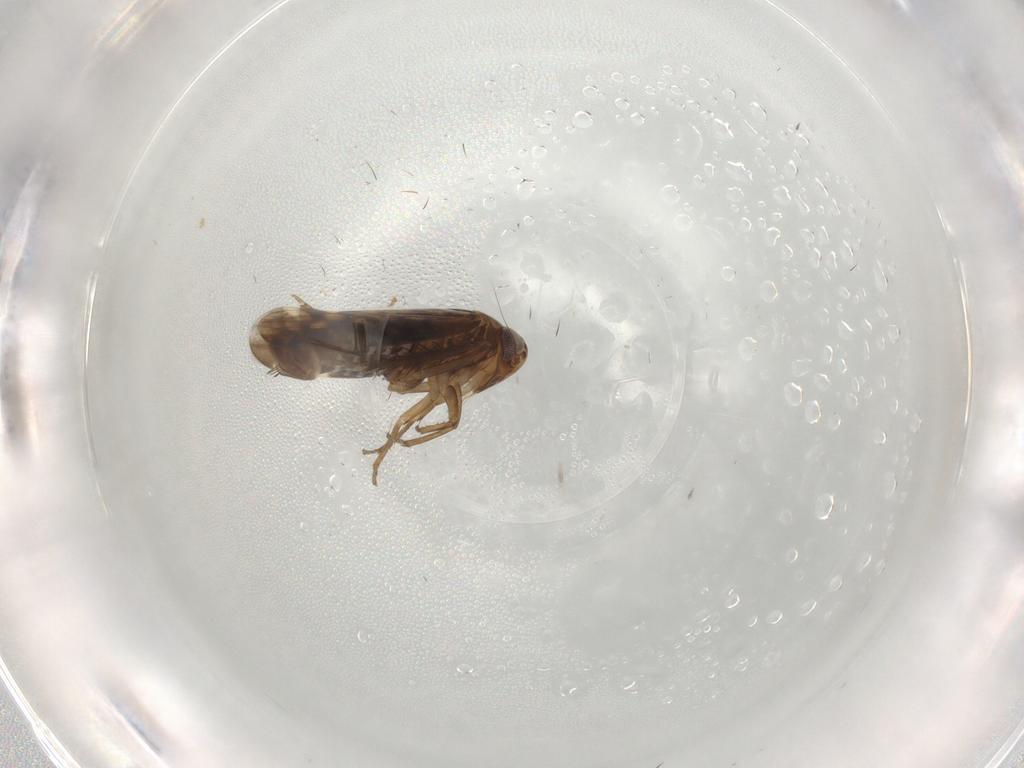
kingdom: Animalia
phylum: Arthropoda
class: Insecta
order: Hemiptera
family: Cicadellidae
